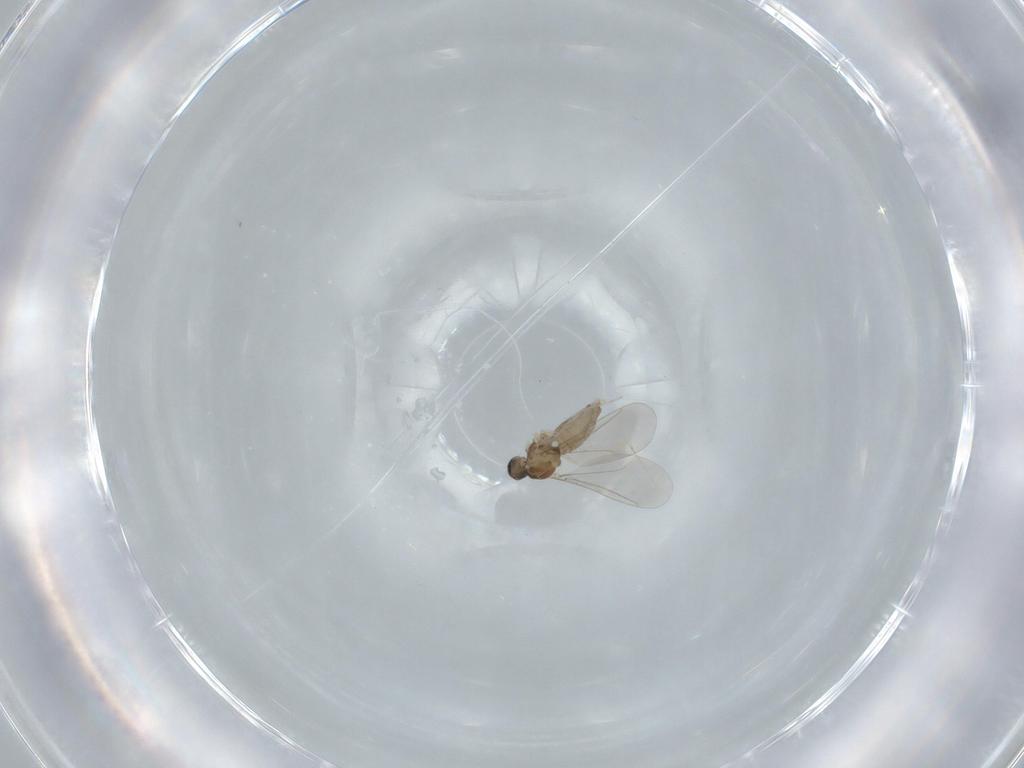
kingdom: Animalia
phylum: Arthropoda
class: Insecta
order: Diptera
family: Cecidomyiidae
